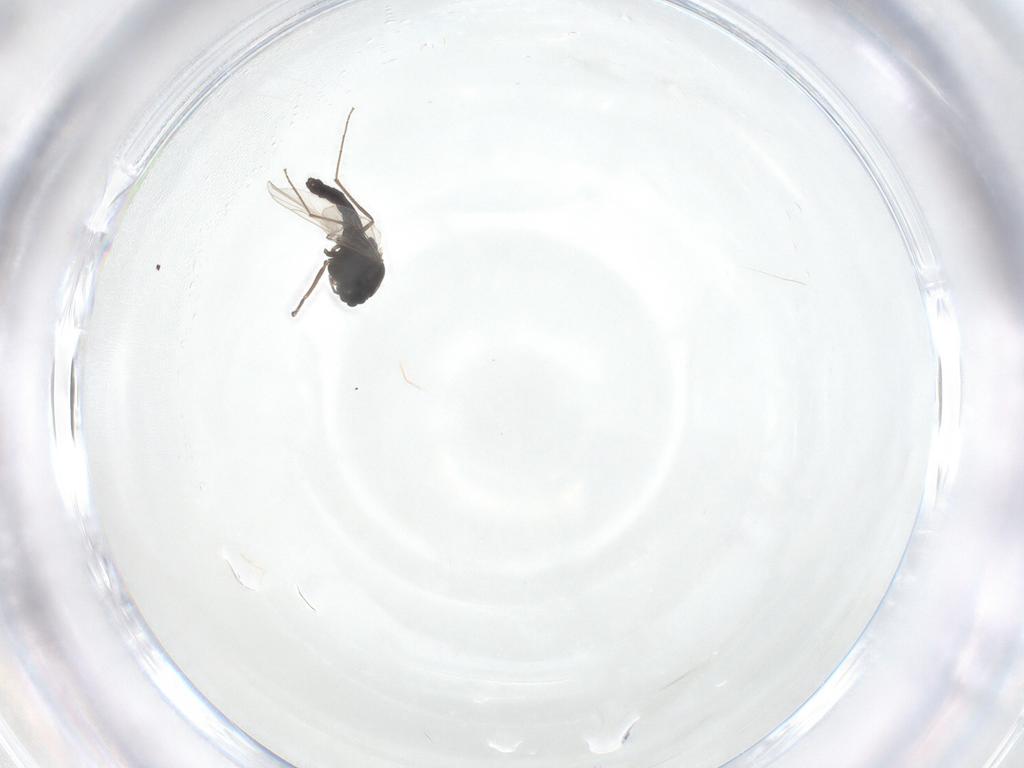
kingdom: Animalia
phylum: Arthropoda
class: Insecta
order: Diptera
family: Chironomidae
